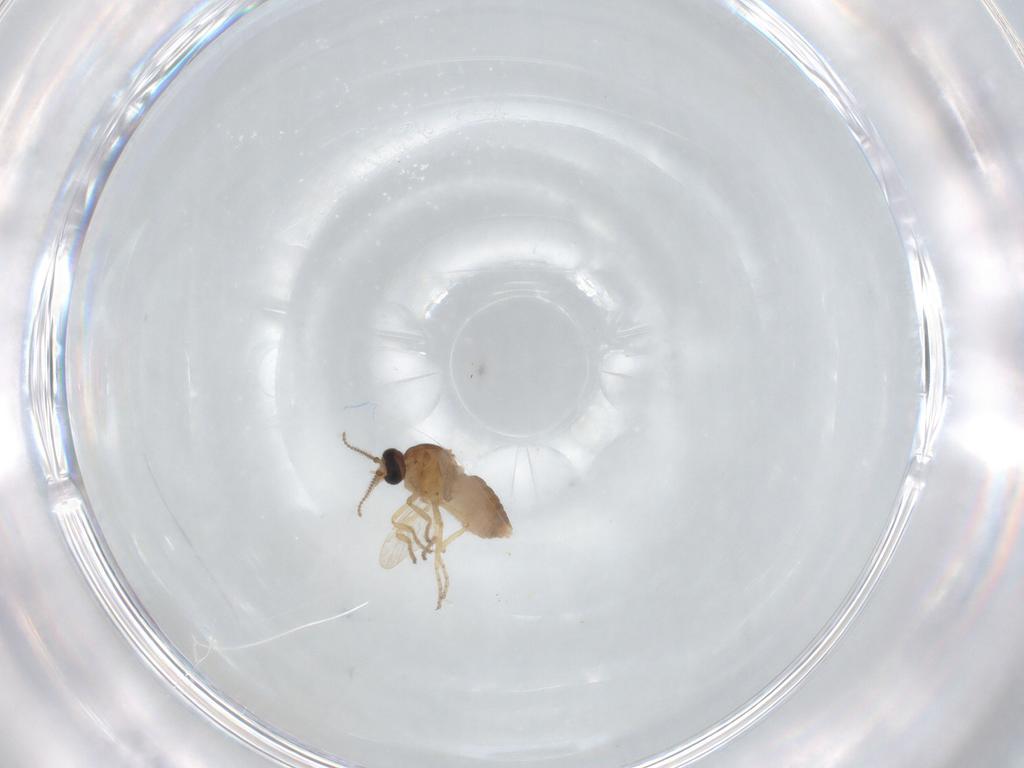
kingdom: Animalia
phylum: Arthropoda
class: Insecta
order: Diptera
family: Ceratopogonidae
